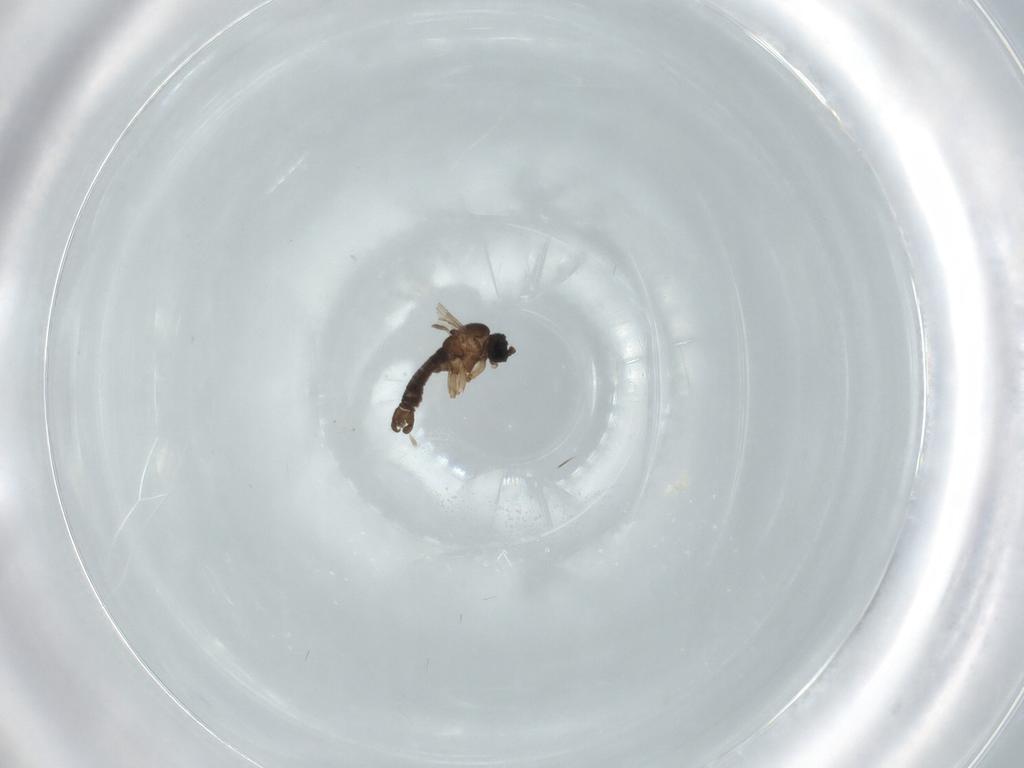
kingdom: Animalia
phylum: Arthropoda
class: Insecta
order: Diptera
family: Sciaridae
